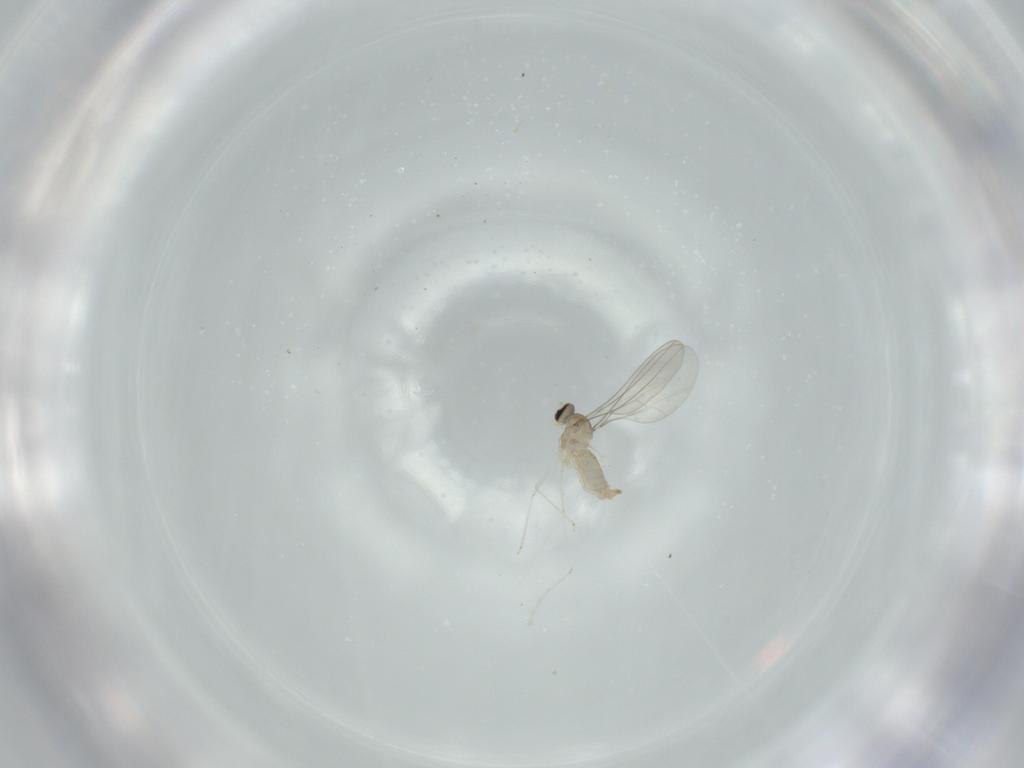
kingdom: Animalia
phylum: Arthropoda
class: Insecta
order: Diptera
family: Cecidomyiidae
